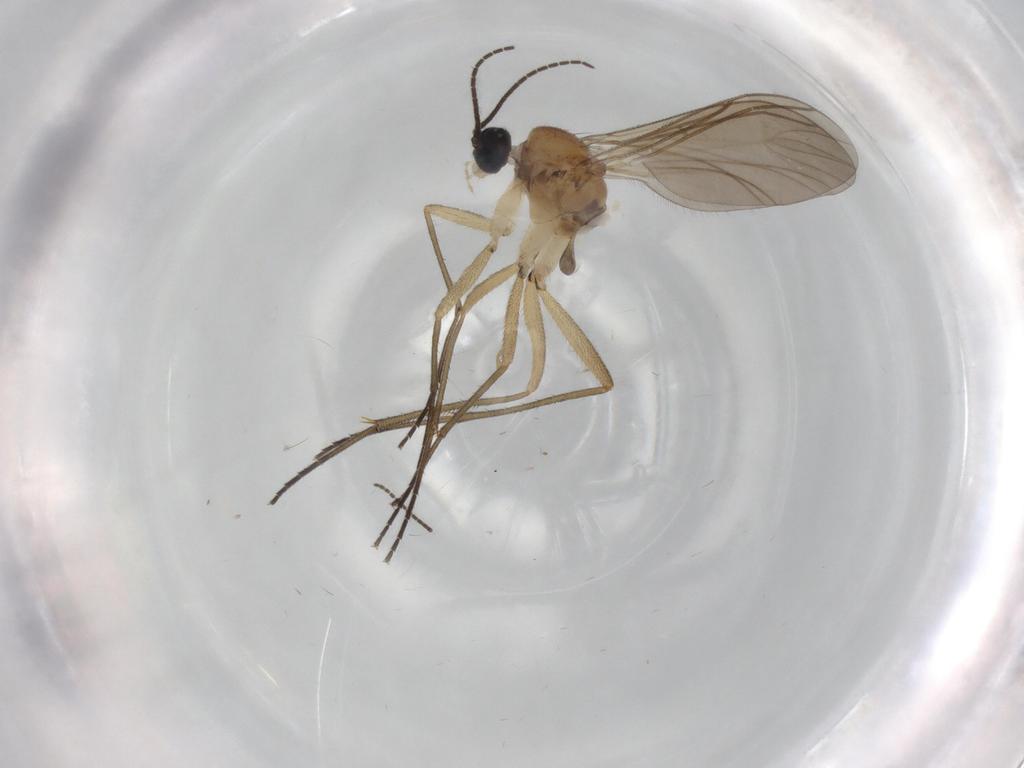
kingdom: Animalia
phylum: Arthropoda
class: Insecta
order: Diptera
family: Sciaridae
